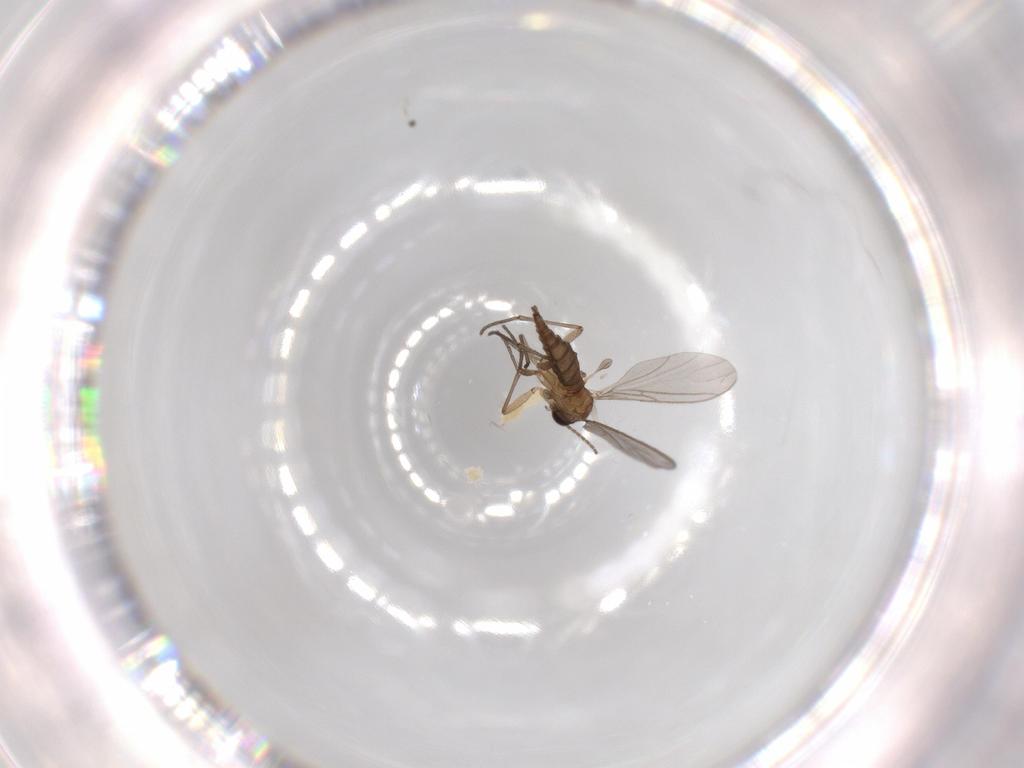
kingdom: Animalia
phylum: Arthropoda
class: Insecta
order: Diptera
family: Sciaridae
